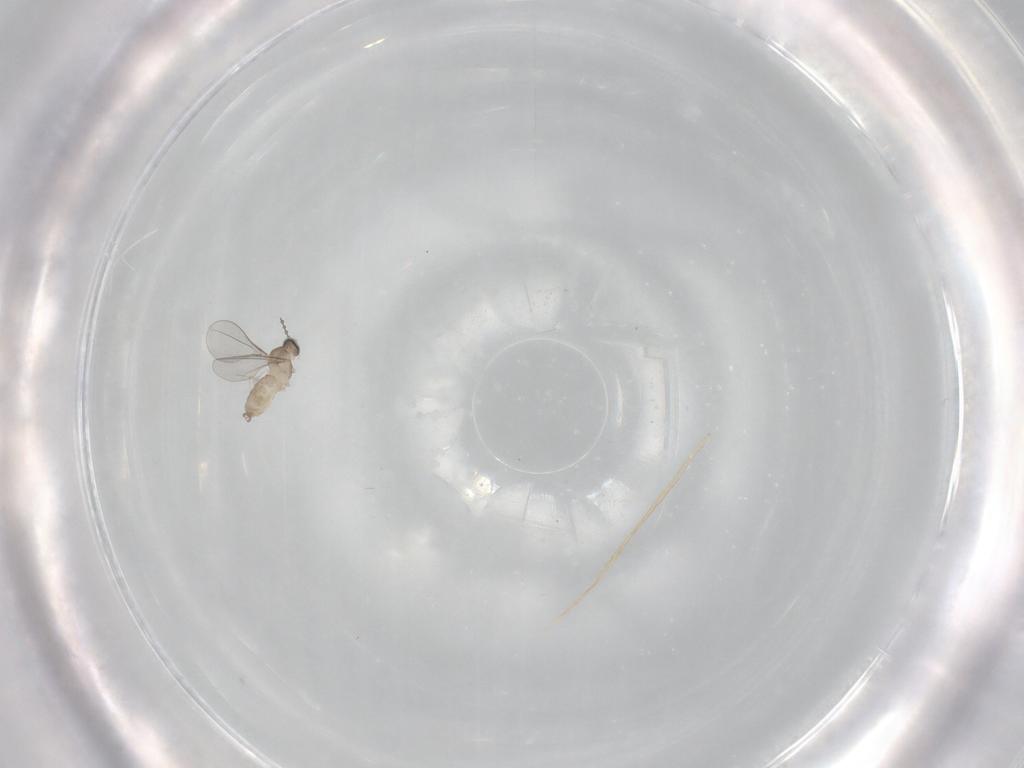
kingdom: Animalia
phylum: Arthropoda
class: Insecta
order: Diptera
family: Cecidomyiidae
